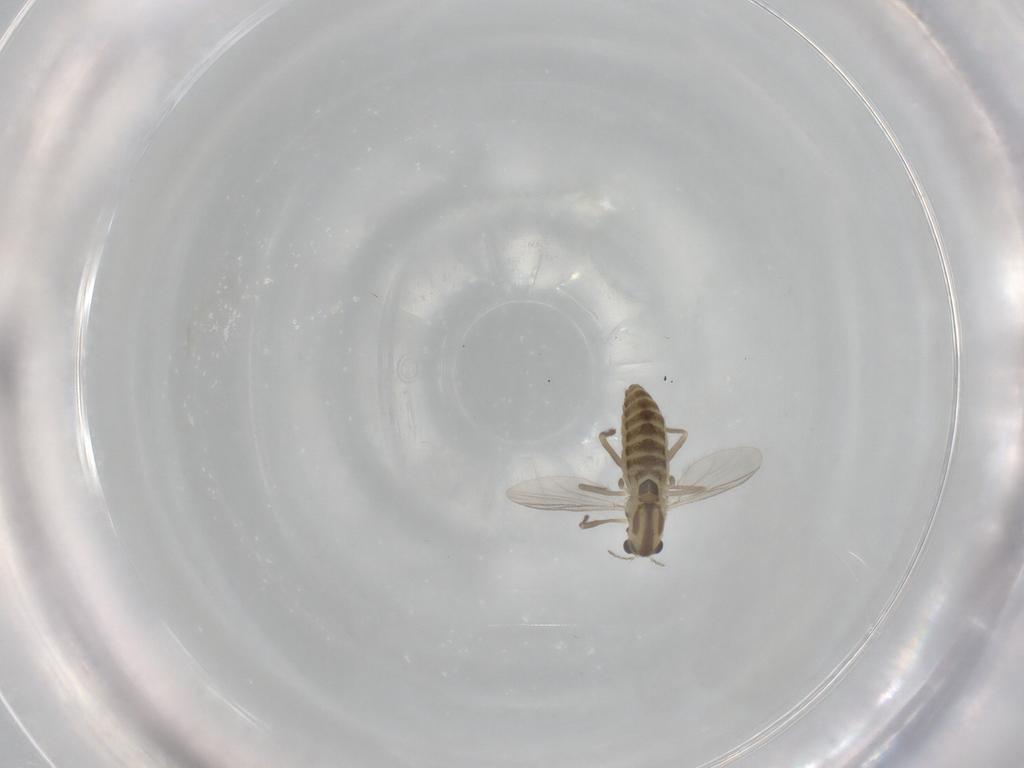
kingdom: Animalia
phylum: Arthropoda
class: Insecta
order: Diptera
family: Chironomidae
